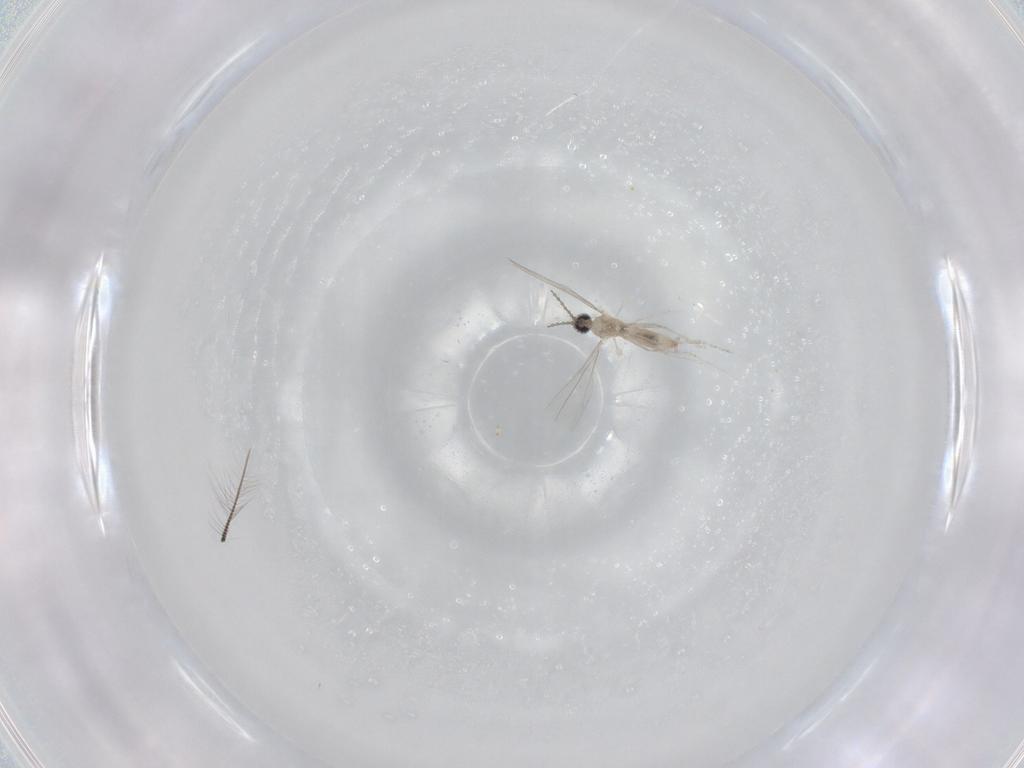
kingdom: Animalia
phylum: Arthropoda
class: Insecta
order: Diptera
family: Cecidomyiidae
